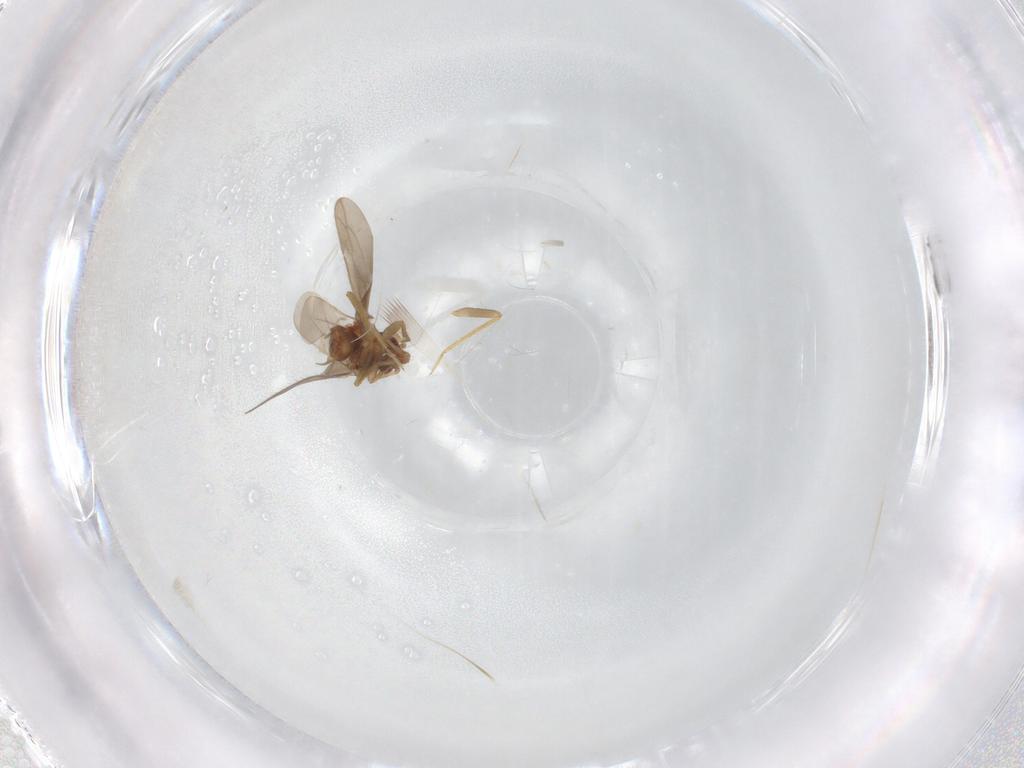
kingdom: Animalia
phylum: Arthropoda
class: Insecta
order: Hemiptera
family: Ceratocombidae
